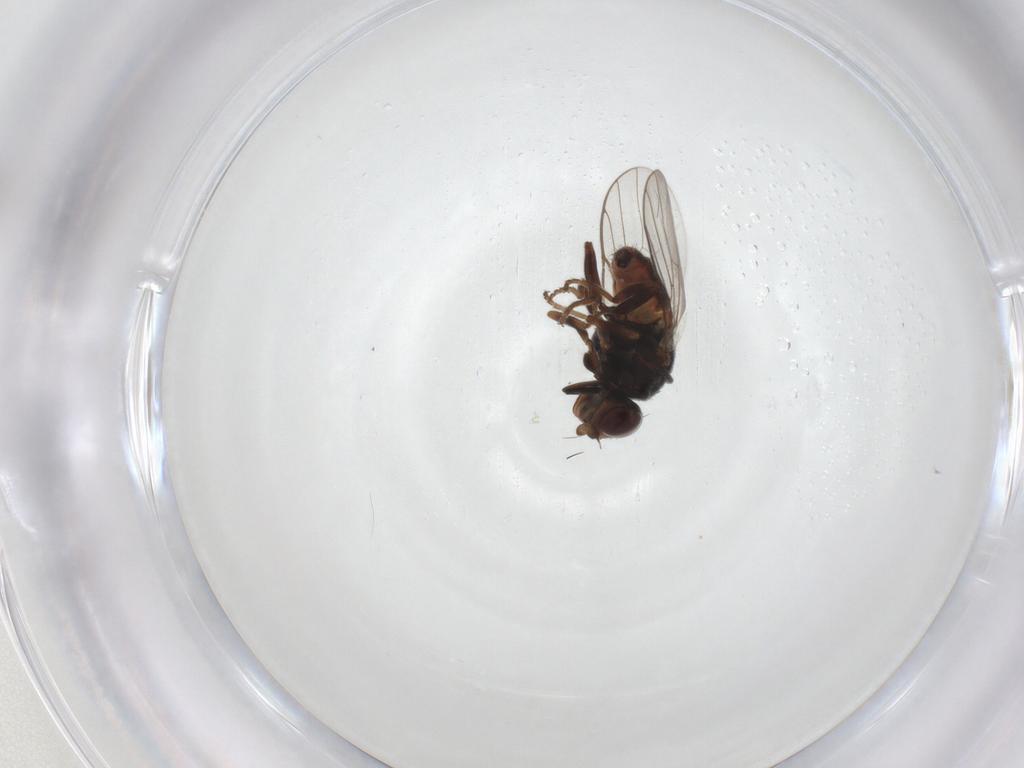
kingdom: Animalia
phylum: Arthropoda
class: Insecta
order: Diptera
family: Chloropidae
